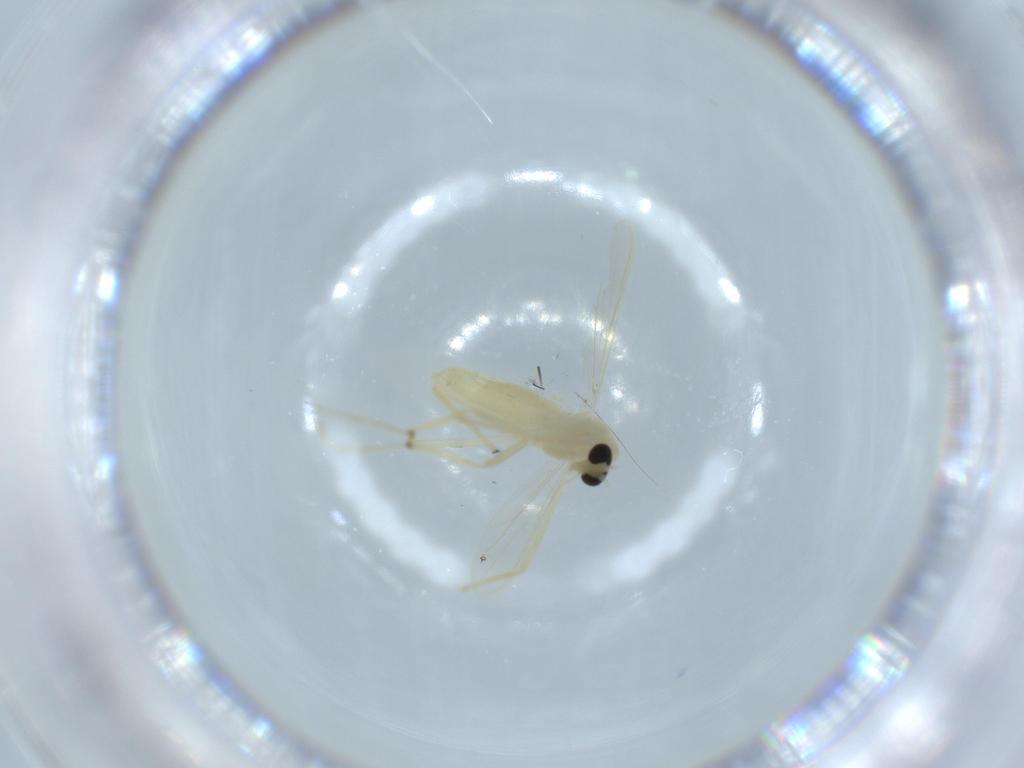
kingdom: Animalia
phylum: Arthropoda
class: Insecta
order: Diptera
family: Chironomidae
